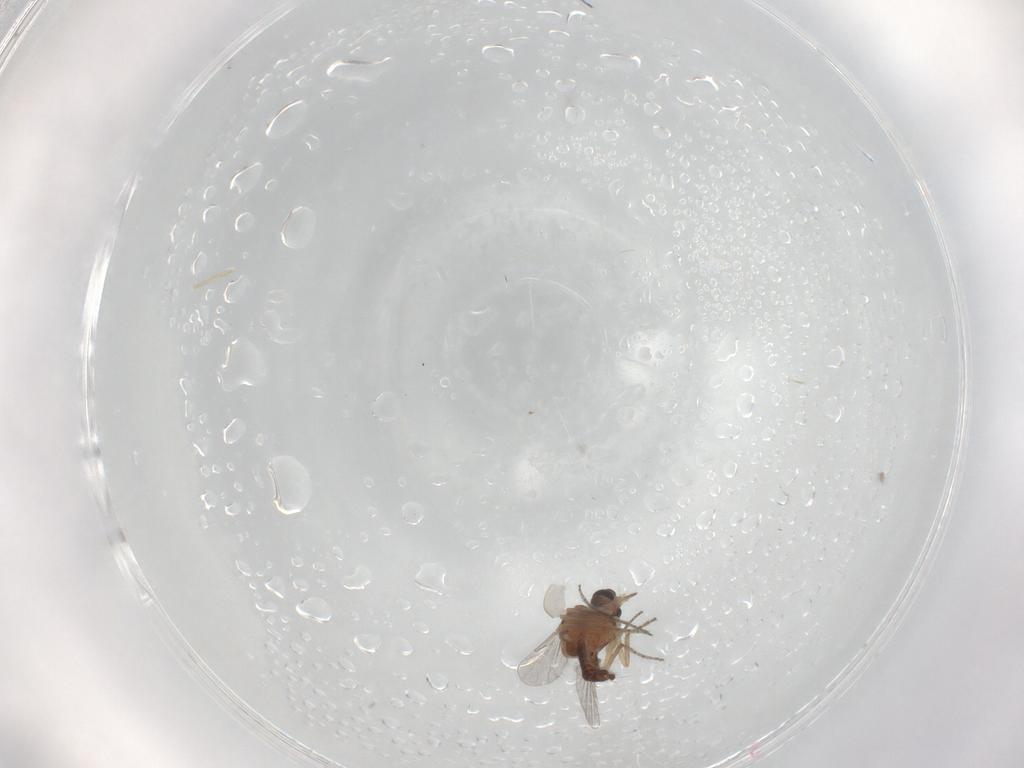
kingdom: Animalia
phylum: Arthropoda
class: Insecta
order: Diptera
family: Ceratopogonidae
